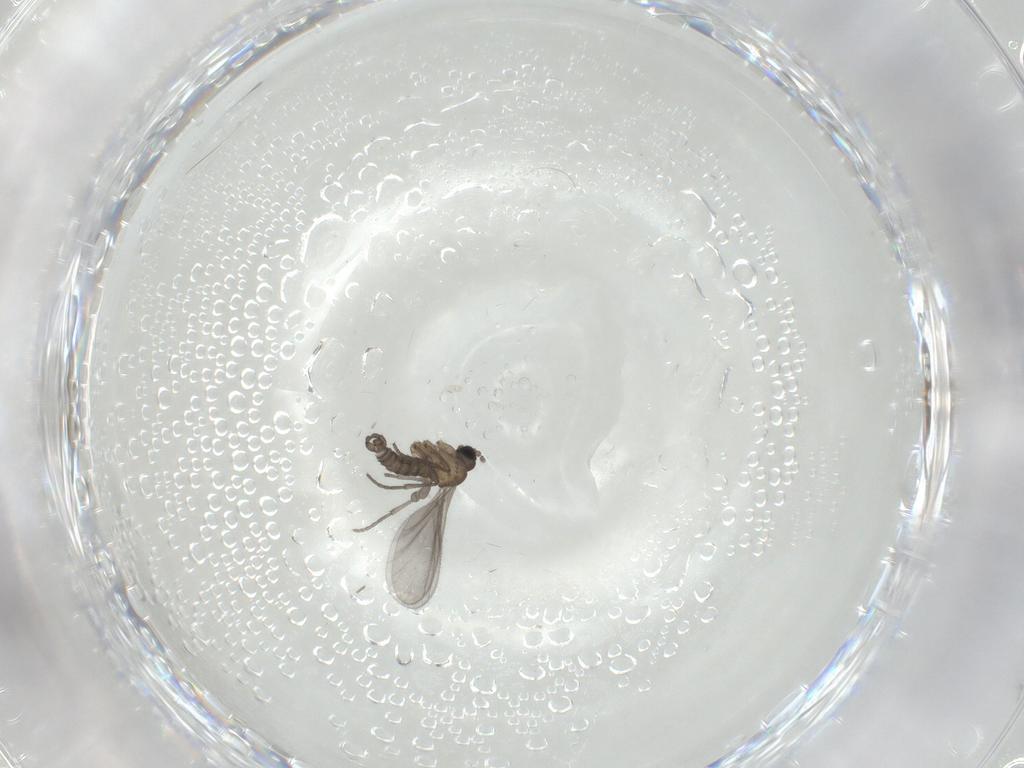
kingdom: Animalia
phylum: Arthropoda
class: Insecta
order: Diptera
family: Sciaridae
